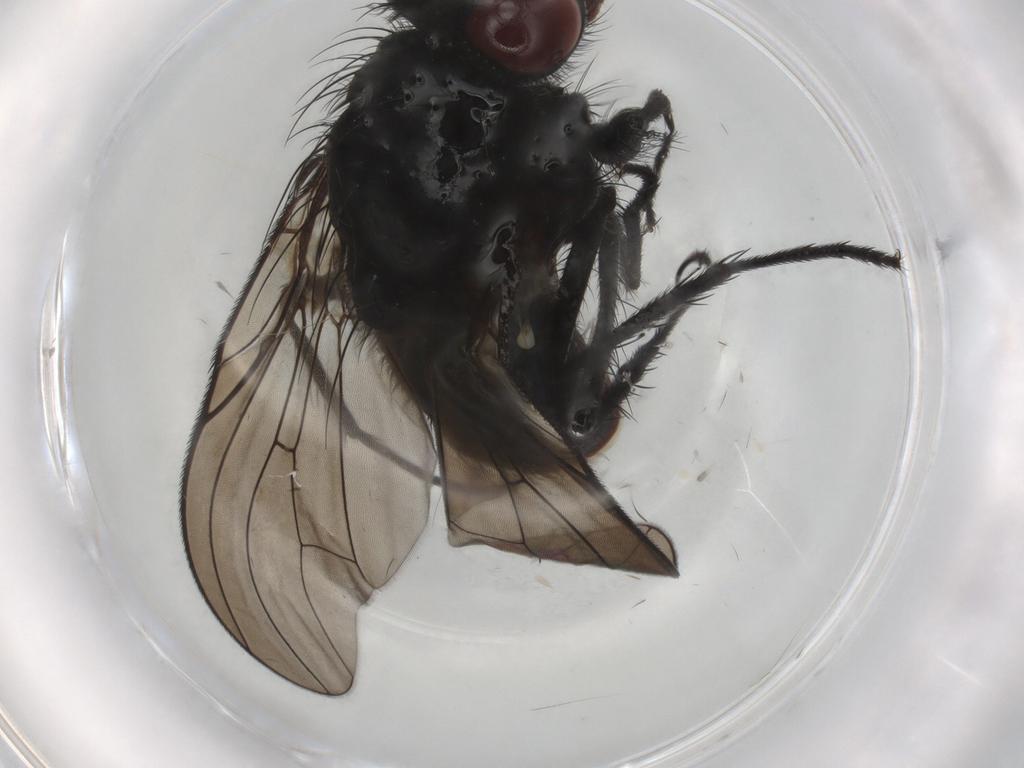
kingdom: Animalia
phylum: Arthropoda
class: Insecta
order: Diptera
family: Anthomyiidae
